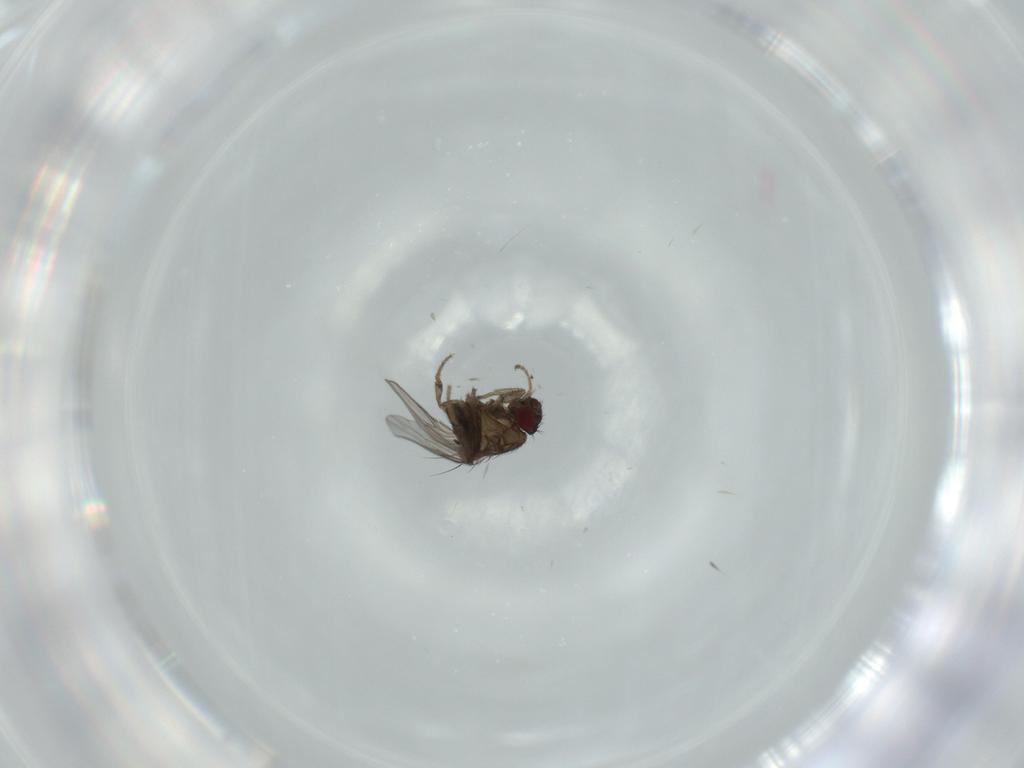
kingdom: Animalia
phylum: Arthropoda
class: Insecta
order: Diptera
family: Sphaeroceridae
